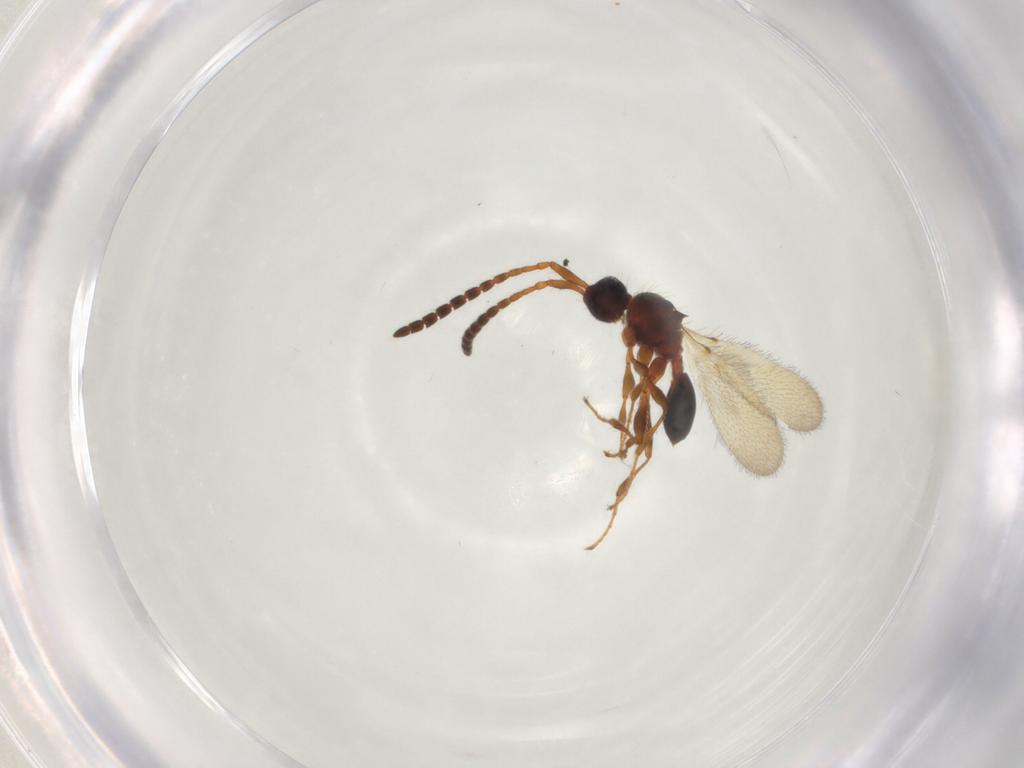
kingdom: Animalia
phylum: Arthropoda
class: Insecta
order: Hymenoptera
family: Diapriidae
